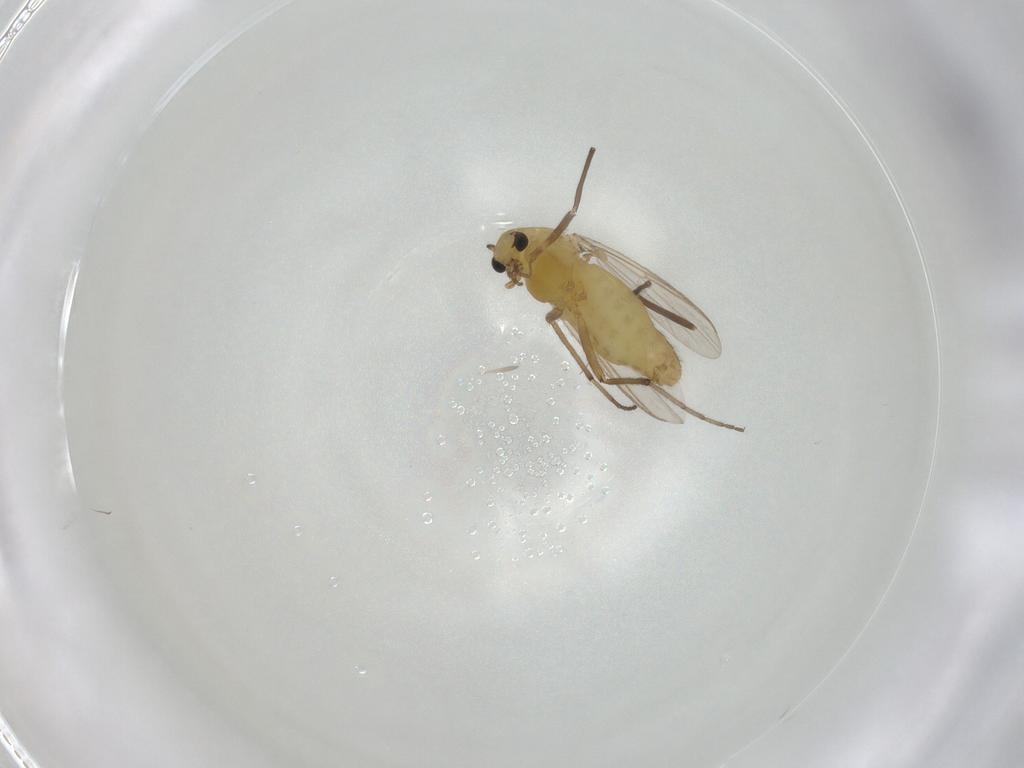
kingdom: Animalia
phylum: Arthropoda
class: Insecta
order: Diptera
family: Chironomidae
